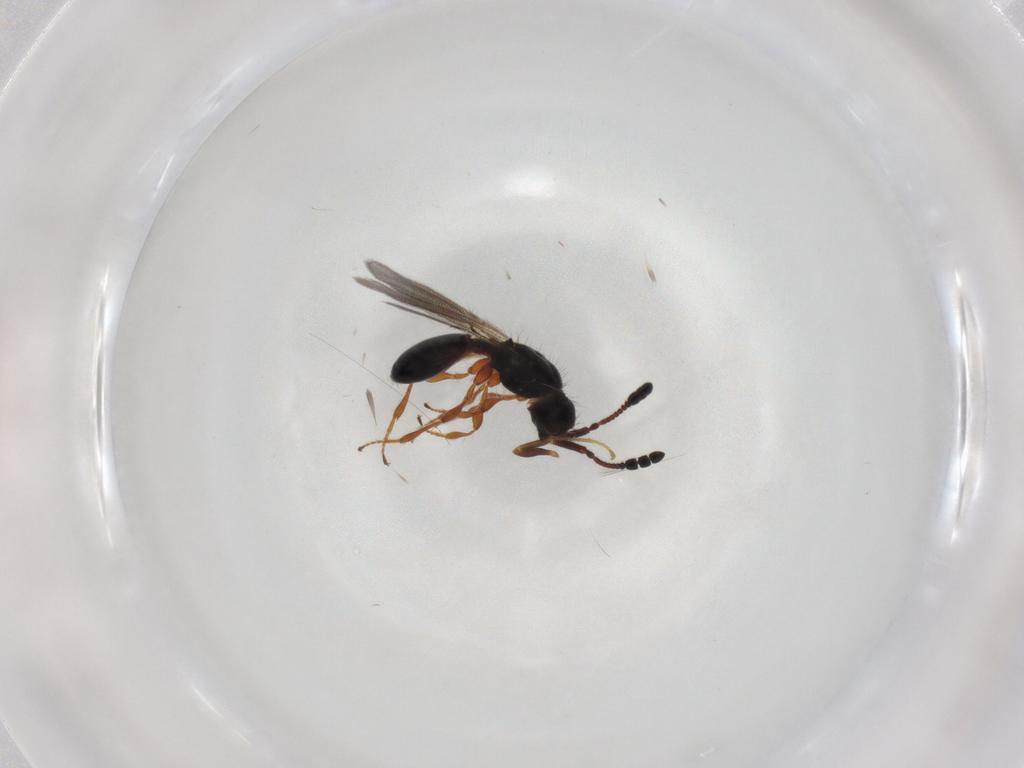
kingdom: Animalia
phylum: Arthropoda
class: Insecta
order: Hymenoptera
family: Diapriidae
